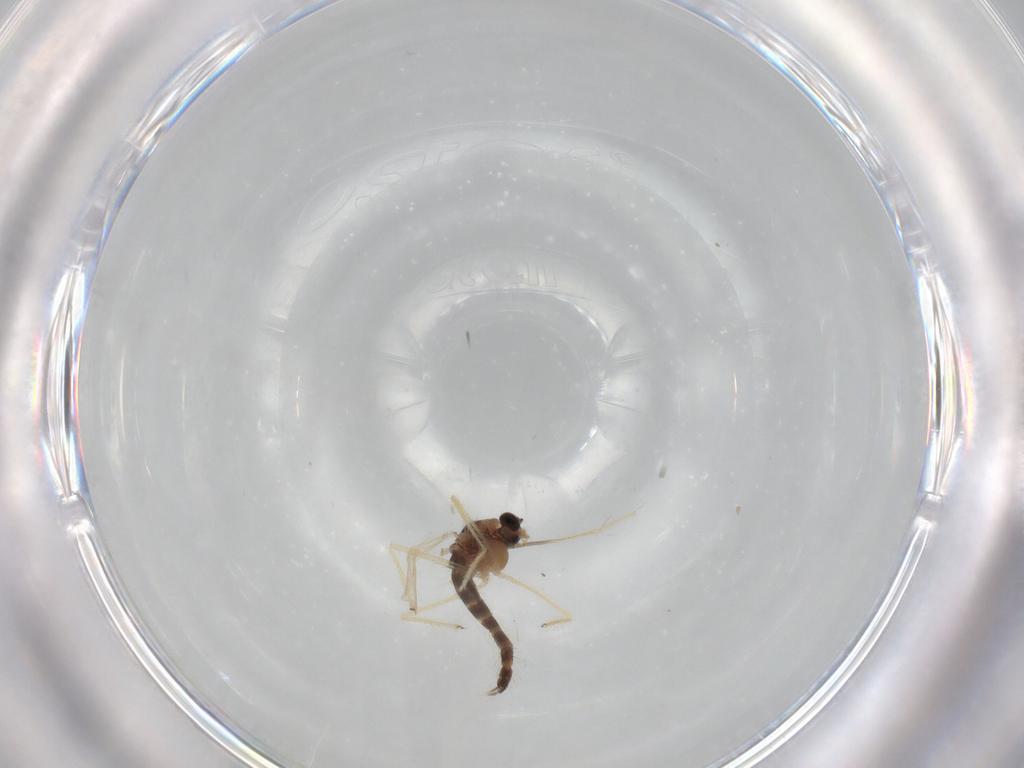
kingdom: Animalia
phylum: Arthropoda
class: Insecta
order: Diptera
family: Chironomidae
